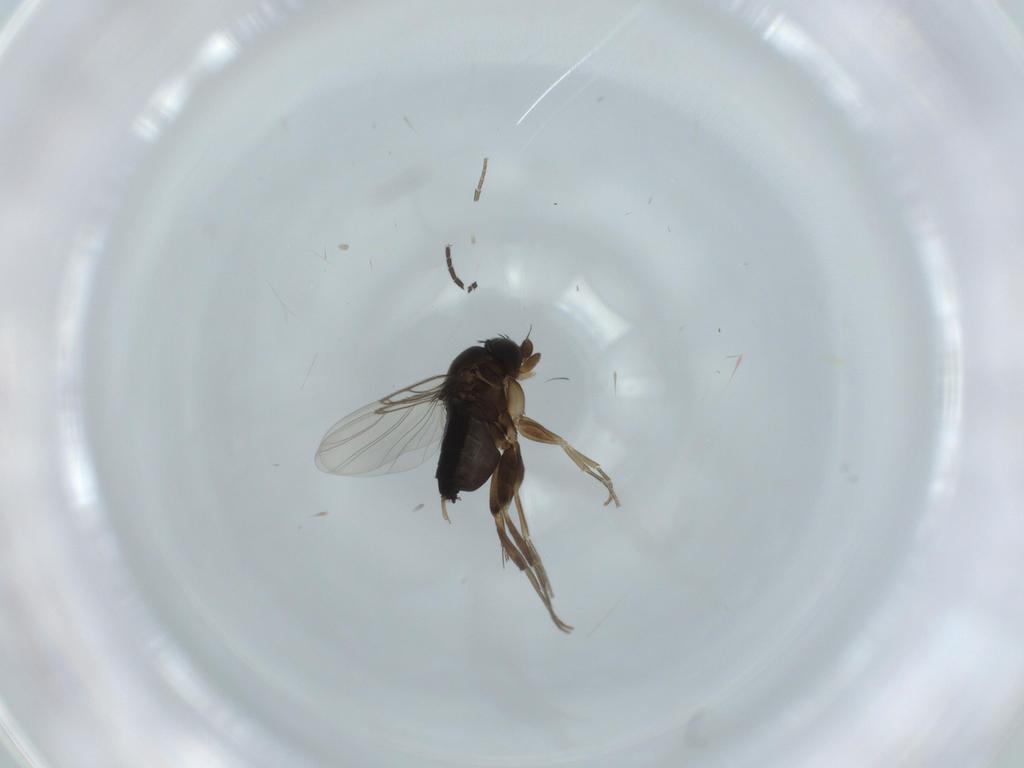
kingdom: Animalia
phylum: Arthropoda
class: Insecta
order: Diptera
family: Phoridae
